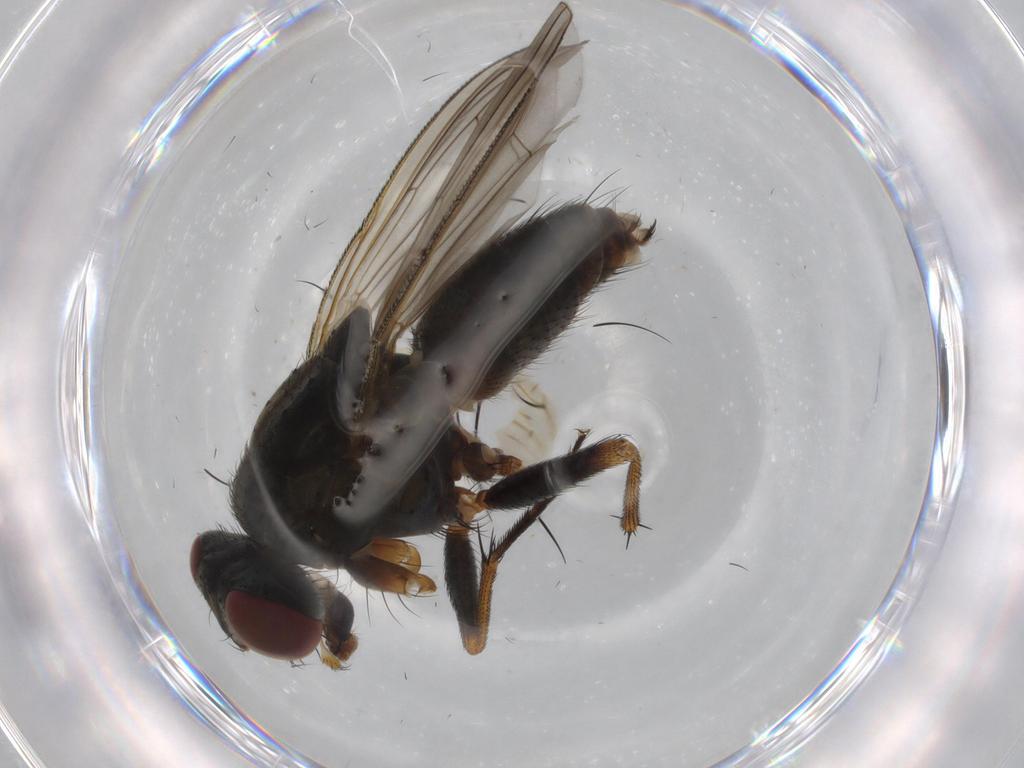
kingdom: Animalia
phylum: Arthropoda
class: Insecta
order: Diptera
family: Muscidae
